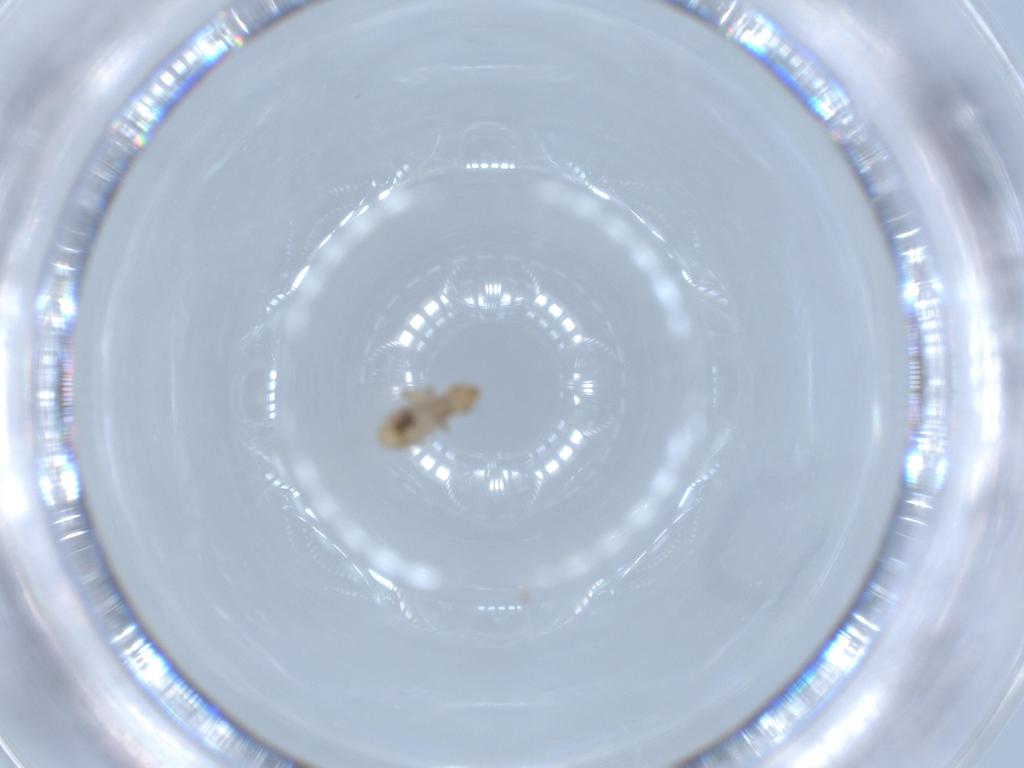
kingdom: Animalia
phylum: Arthropoda
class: Insecta
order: Psocodea
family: Liposcelididae
